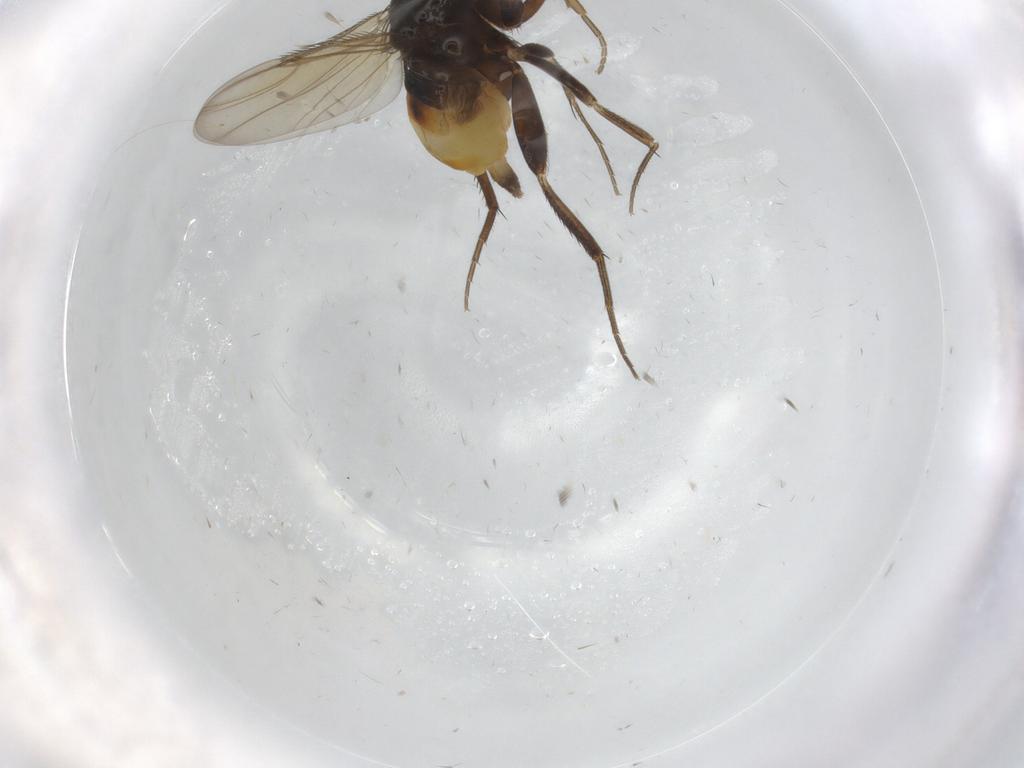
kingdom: Animalia
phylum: Arthropoda
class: Insecta
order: Diptera
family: Phoridae
